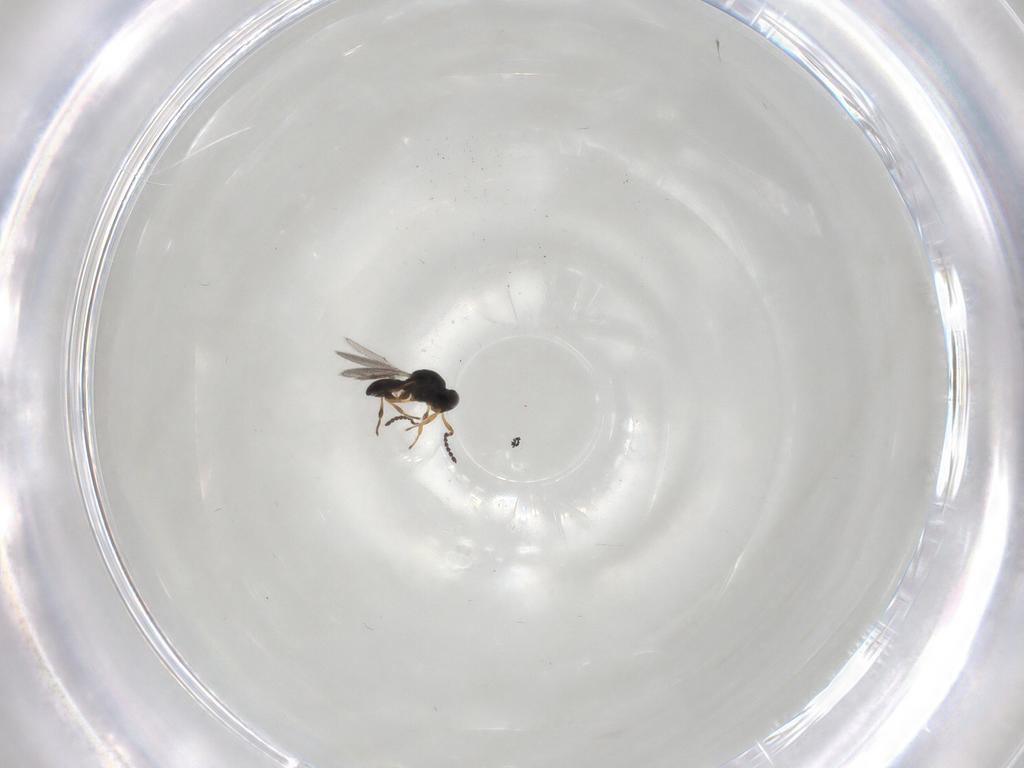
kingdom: Animalia
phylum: Arthropoda
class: Insecta
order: Hymenoptera
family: Platygastridae
